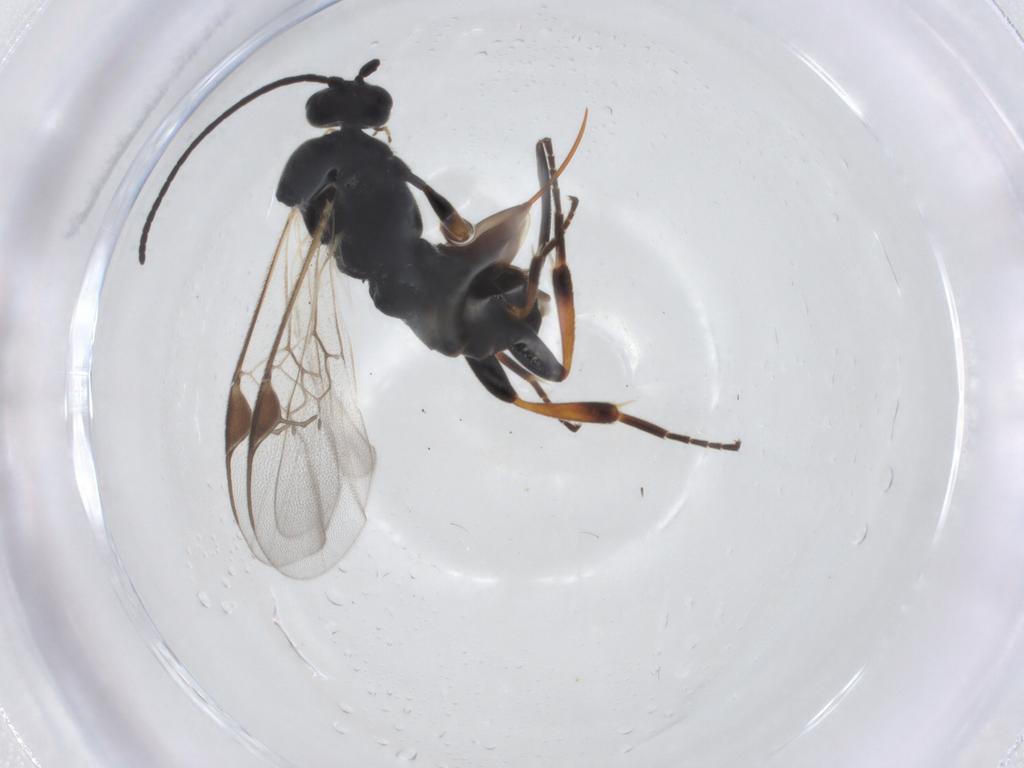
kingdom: Animalia
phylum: Arthropoda
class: Insecta
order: Hymenoptera
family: Braconidae
